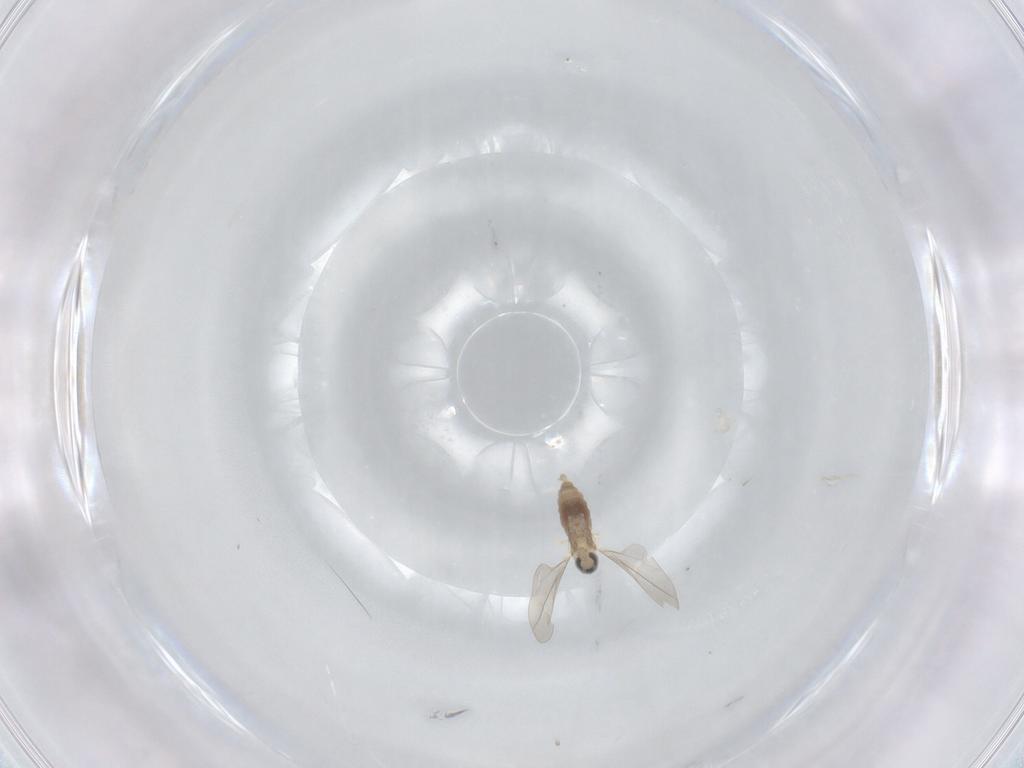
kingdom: Animalia
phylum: Arthropoda
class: Insecta
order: Diptera
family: Cecidomyiidae
